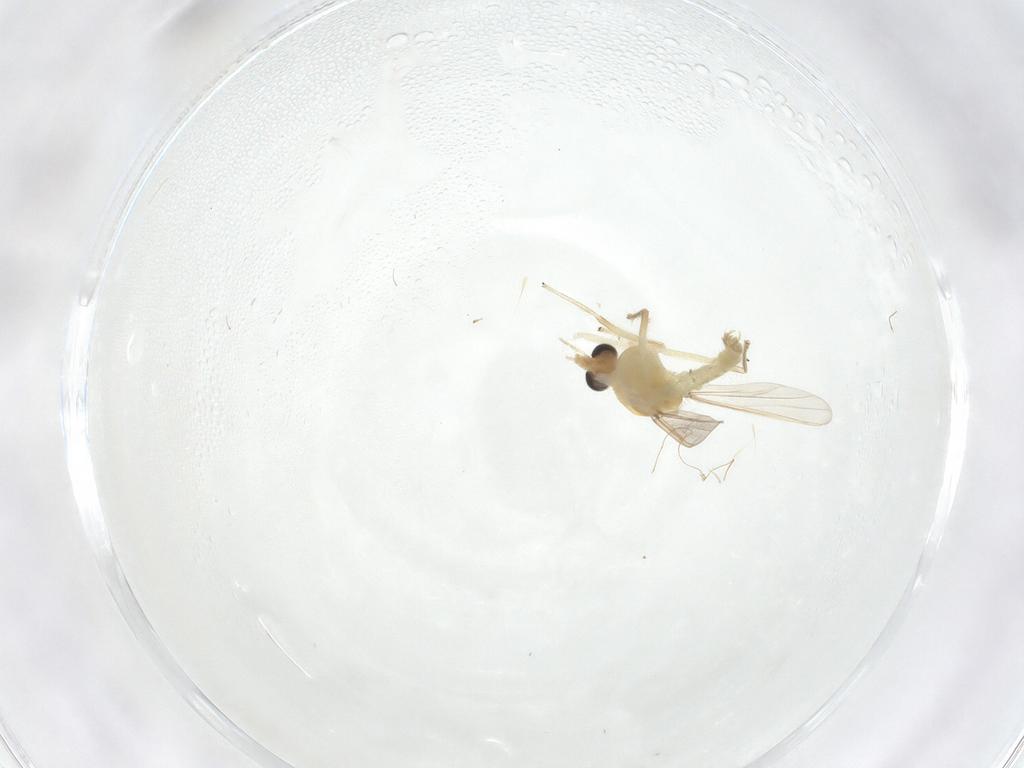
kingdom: Animalia
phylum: Arthropoda
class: Insecta
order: Diptera
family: Chironomidae
